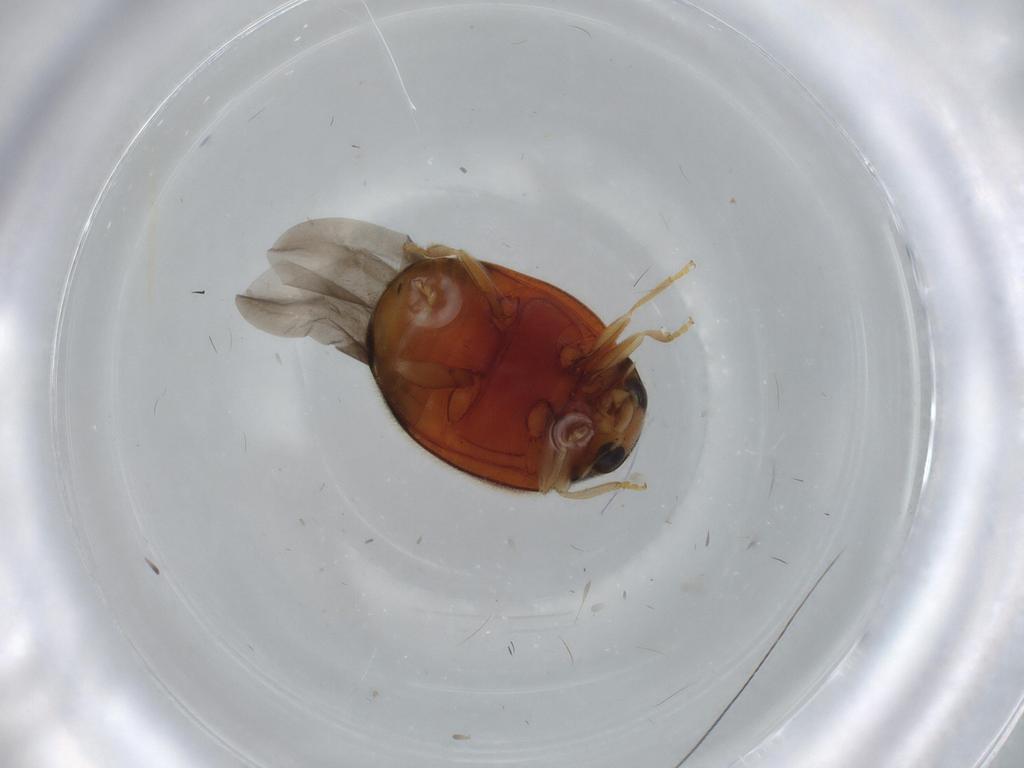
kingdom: Animalia
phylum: Arthropoda
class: Insecta
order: Coleoptera
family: Coccinellidae
